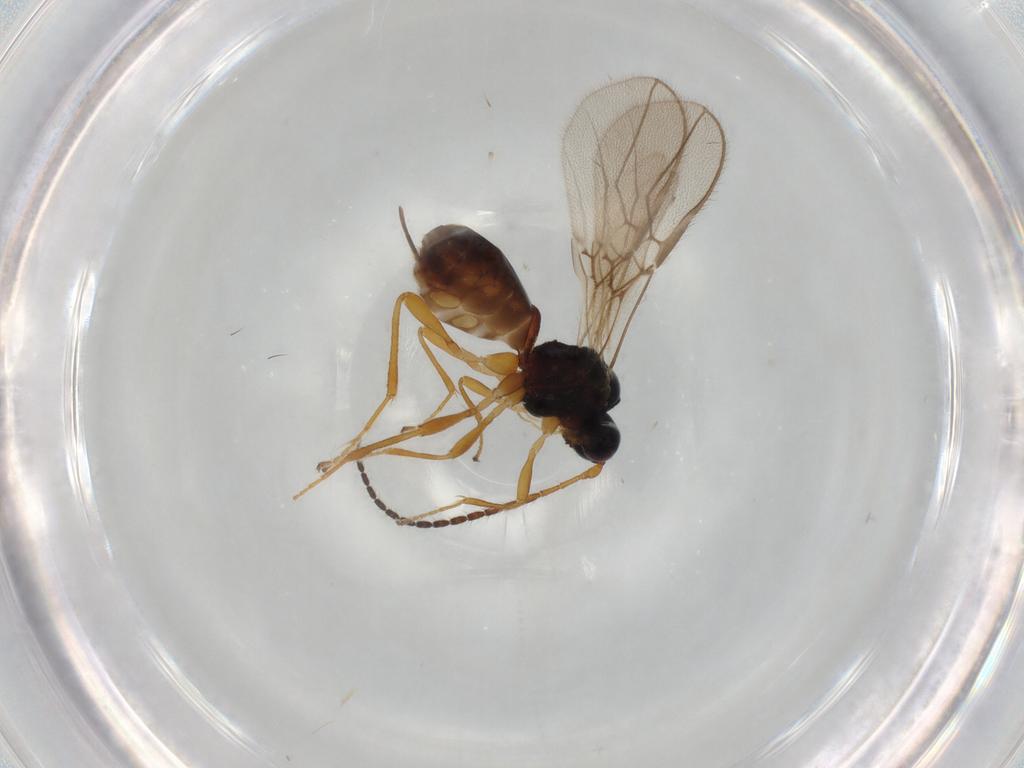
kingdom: Animalia
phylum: Arthropoda
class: Insecta
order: Hymenoptera
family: Braconidae
